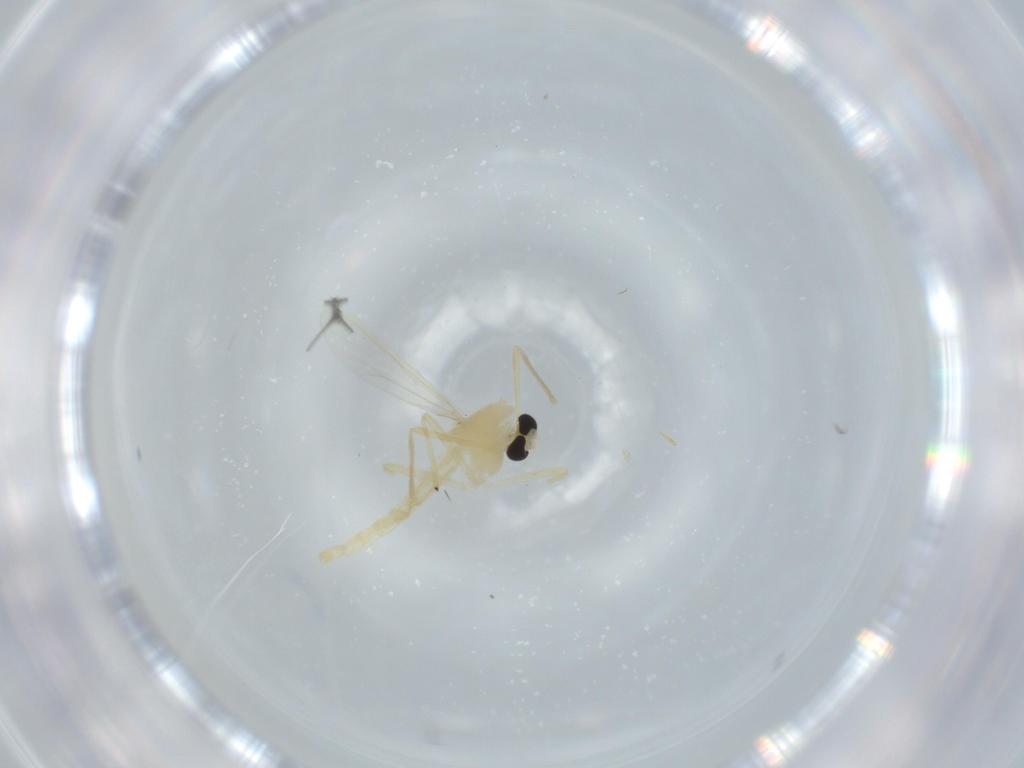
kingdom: Animalia
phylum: Arthropoda
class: Insecta
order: Diptera
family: Chironomidae
